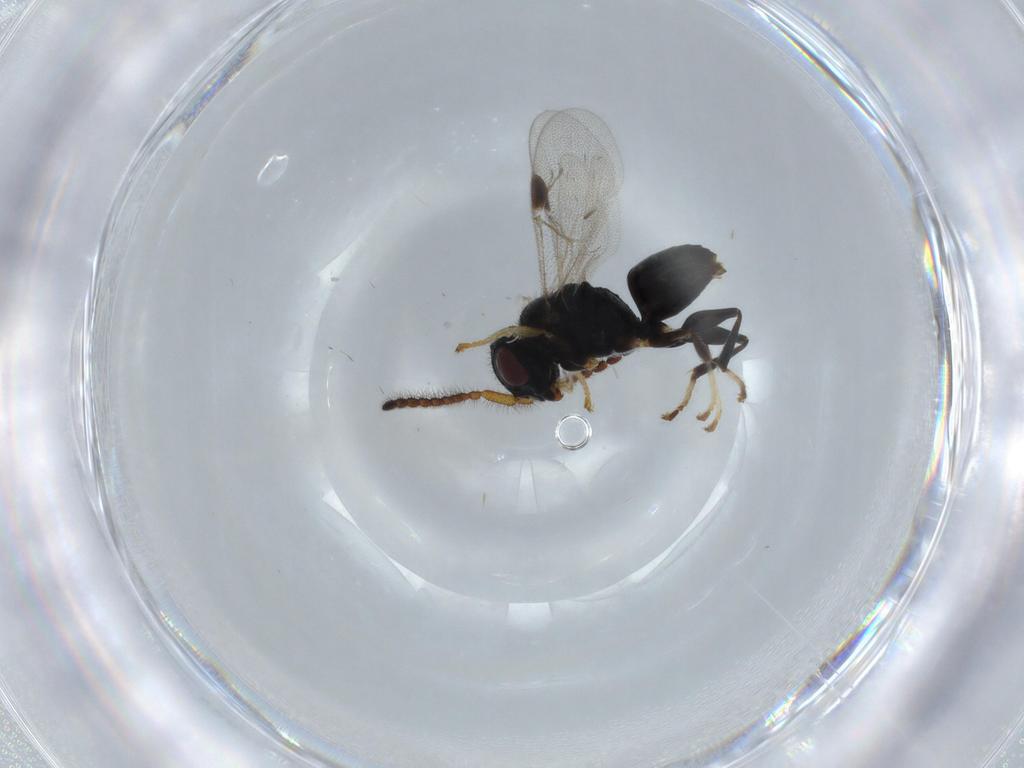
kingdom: Animalia
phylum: Arthropoda
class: Insecta
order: Hymenoptera
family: Dryinidae
